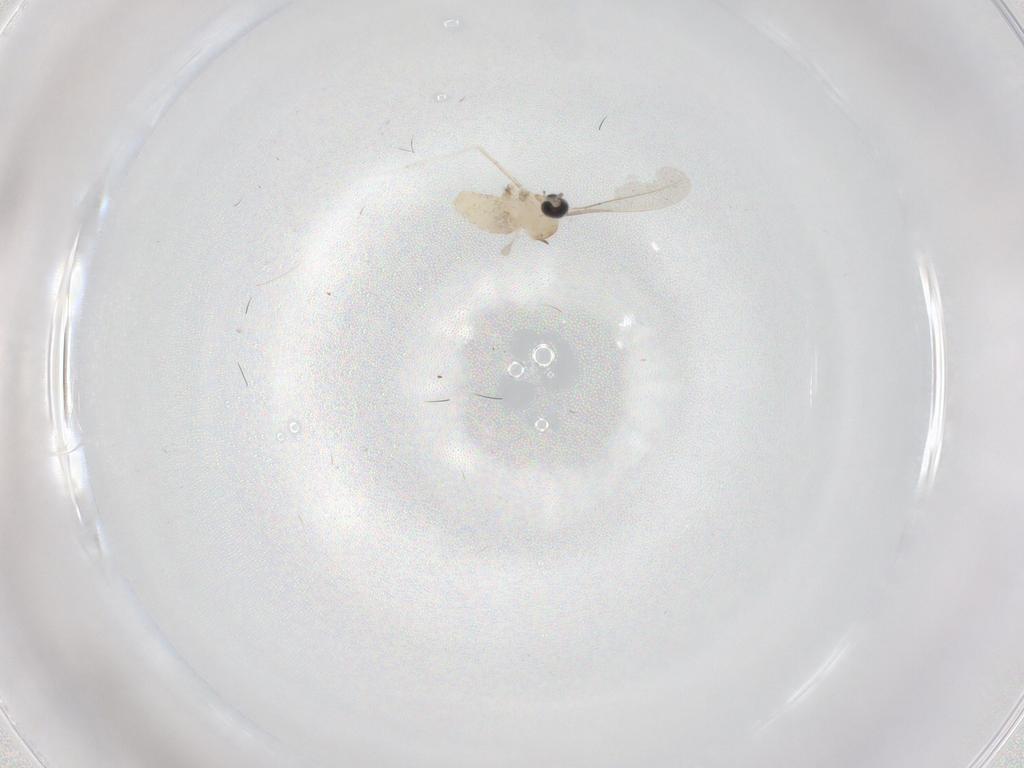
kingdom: Animalia
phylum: Arthropoda
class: Insecta
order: Diptera
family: Cecidomyiidae
